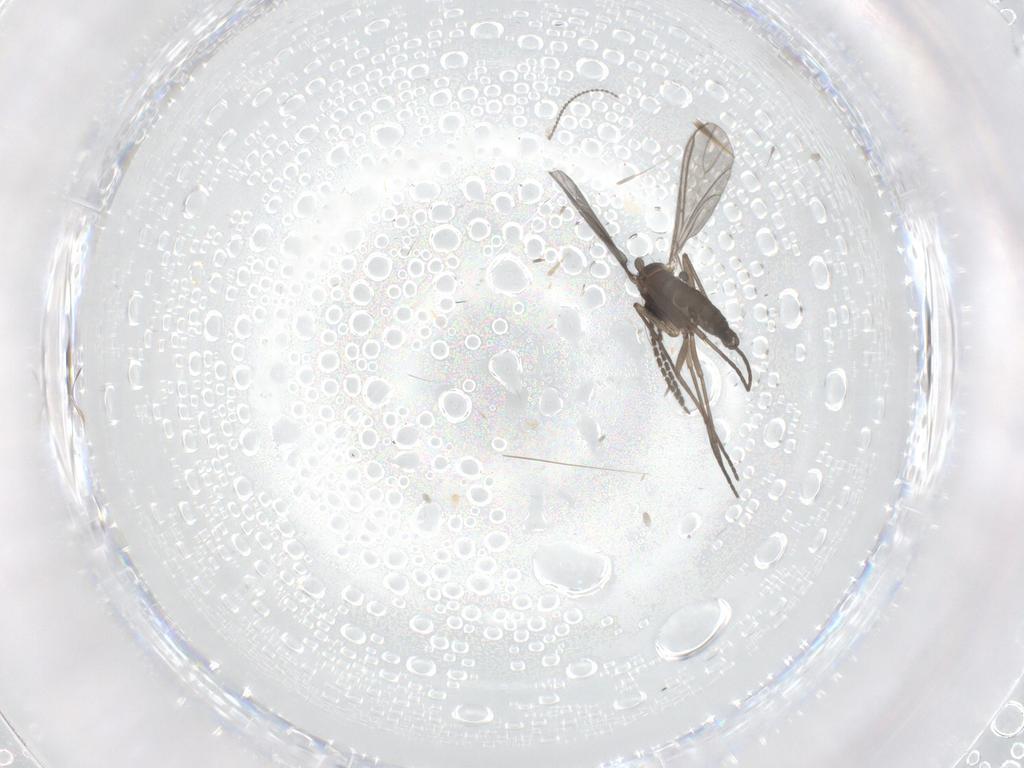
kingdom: Animalia
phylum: Arthropoda
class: Insecta
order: Diptera
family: Sciaridae
